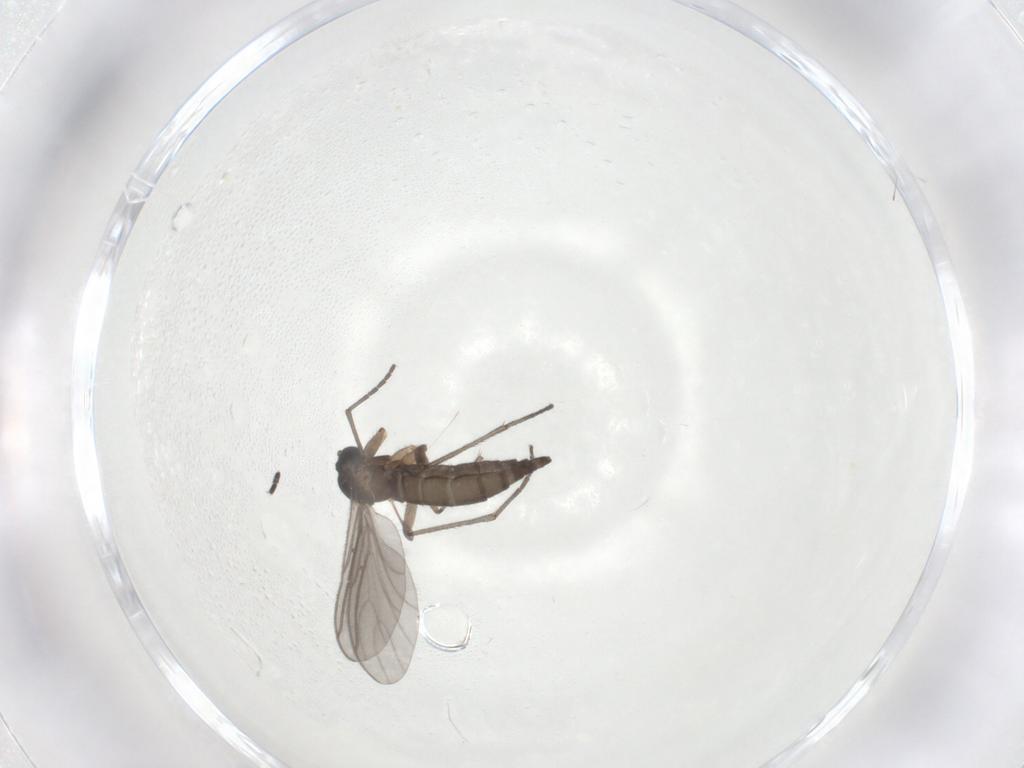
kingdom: Animalia
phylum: Arthropoda
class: Insecta
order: Diptera
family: Sciaridae
